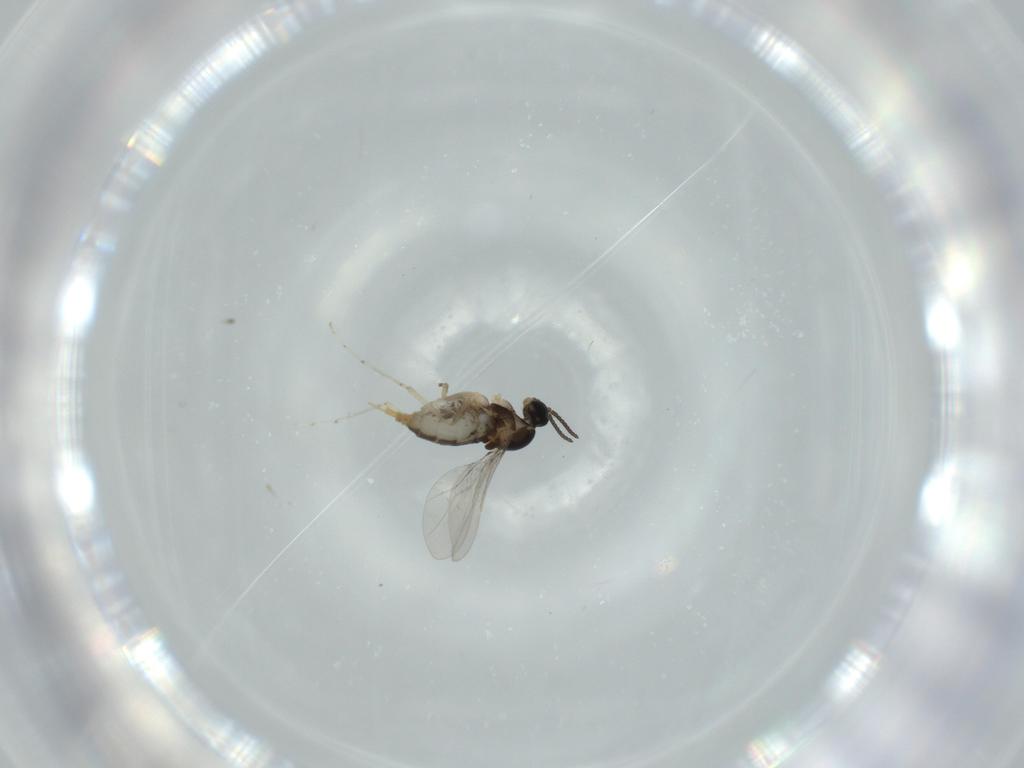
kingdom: Animalia
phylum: Arthropoda
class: Insecta
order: Diptera
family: Cecidomyiidae
